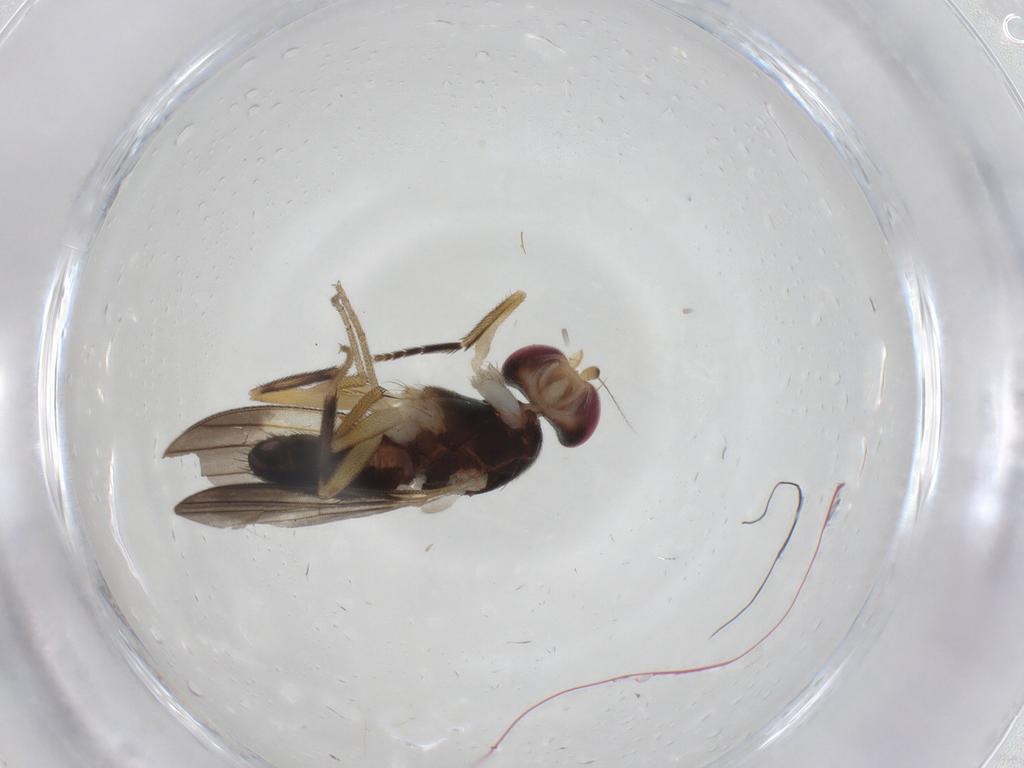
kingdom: Animalia
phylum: Arthropoda
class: Insecta
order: Diptera
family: Clusiidae
